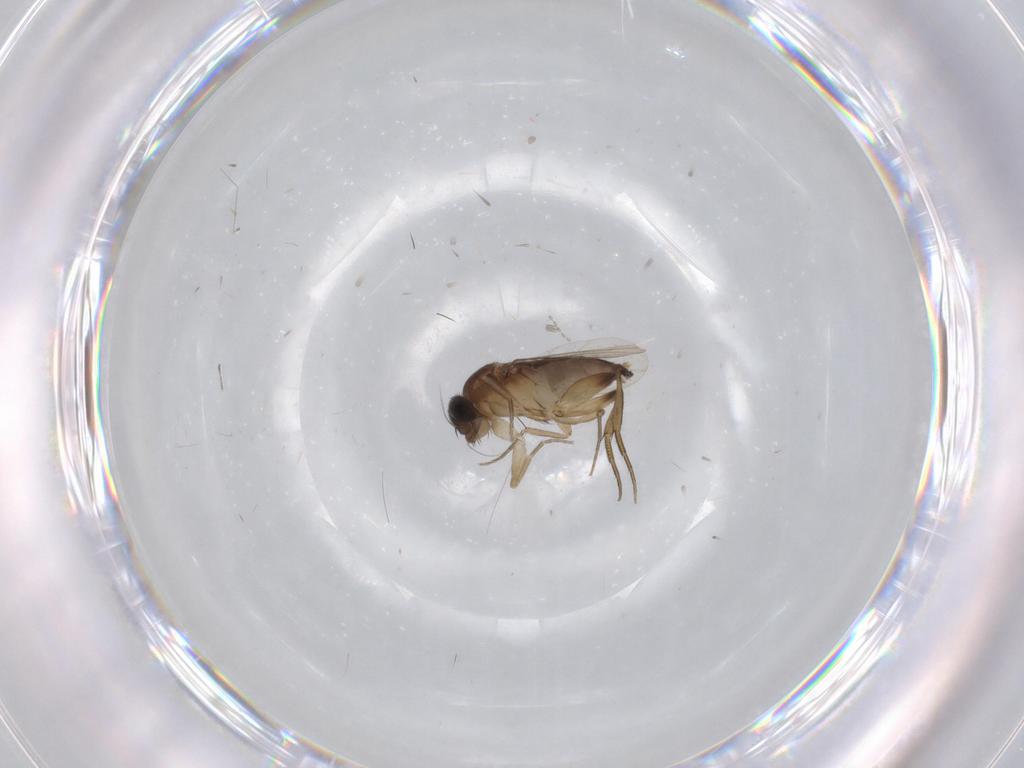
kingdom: Animalia
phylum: Arthropoda
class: Insecta
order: Diptera
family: Phoridae
